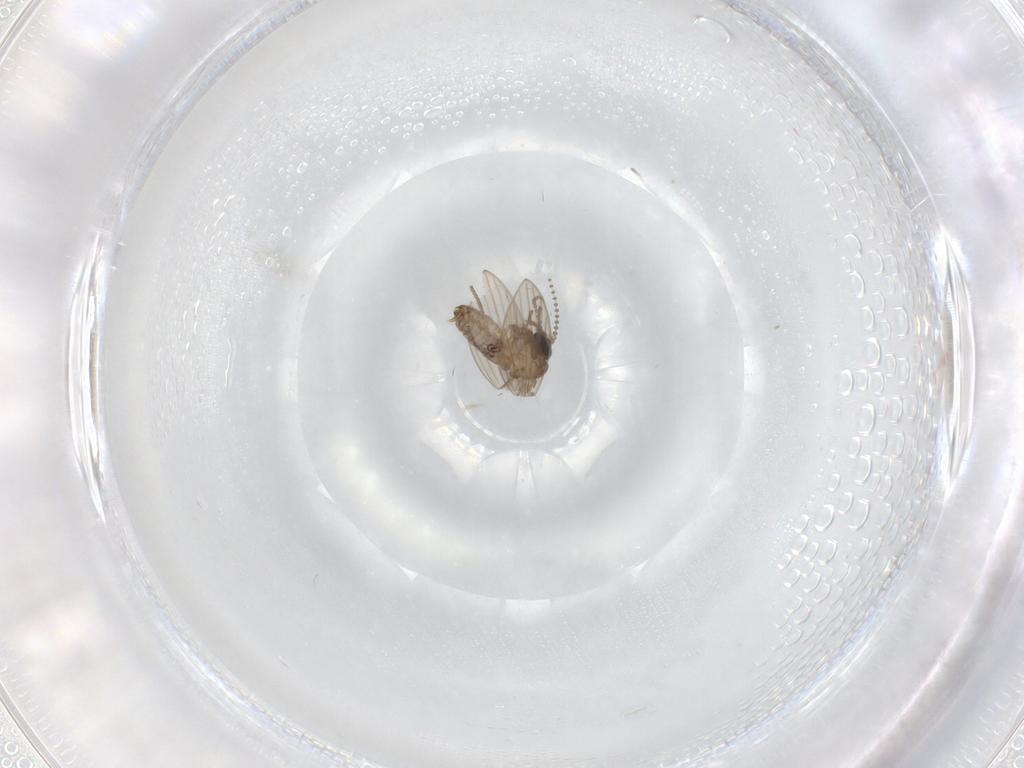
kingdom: Animalia
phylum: Arthropoda
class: Insecta
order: Diptera
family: Psychodidae
